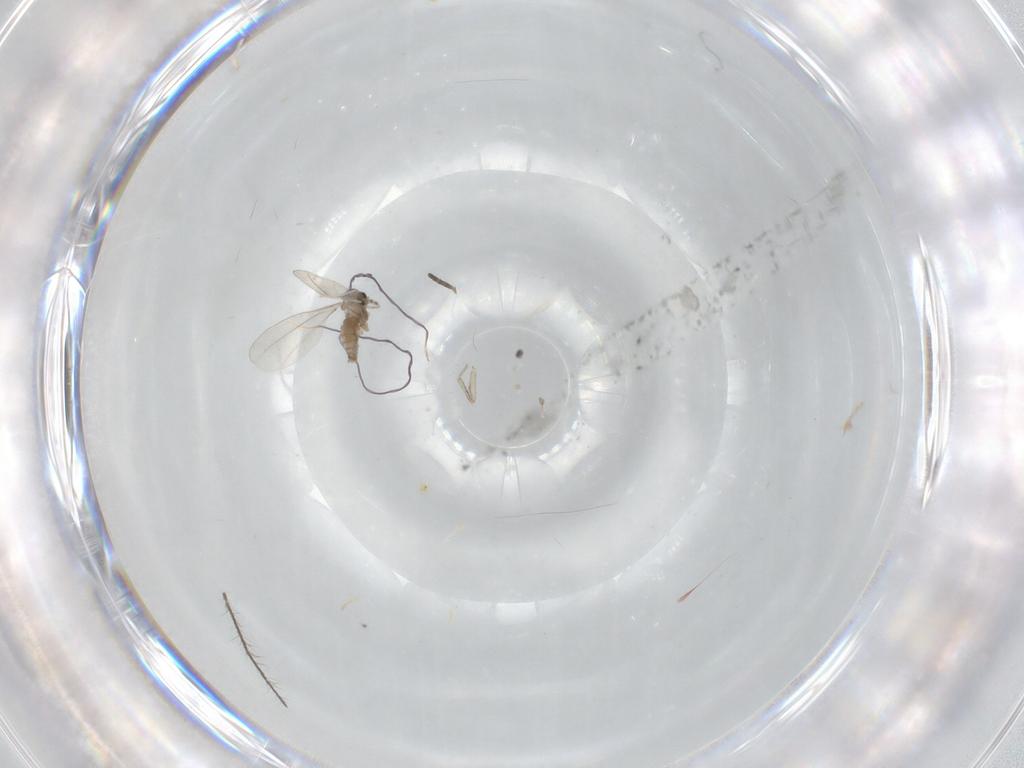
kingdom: Animalia
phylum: Arthropoda
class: Insecta
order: Diptera
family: Cecidomyiidae
